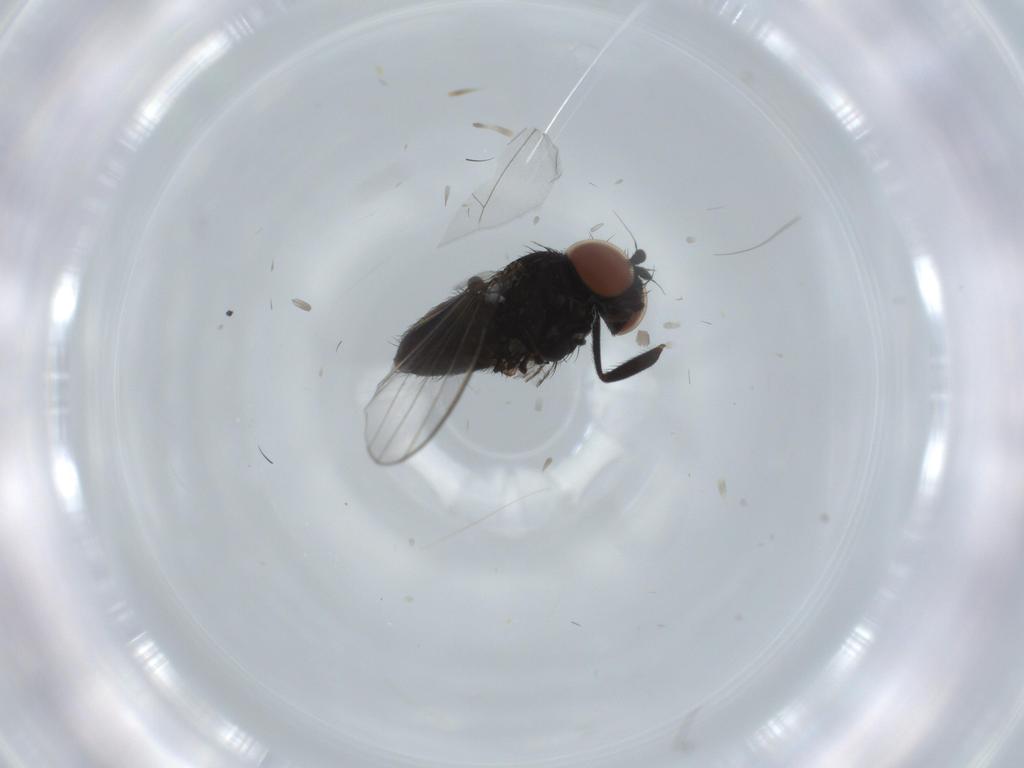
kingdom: Animalia
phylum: Arthropoda
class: Insecta
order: Diptera
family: Milichiidae
